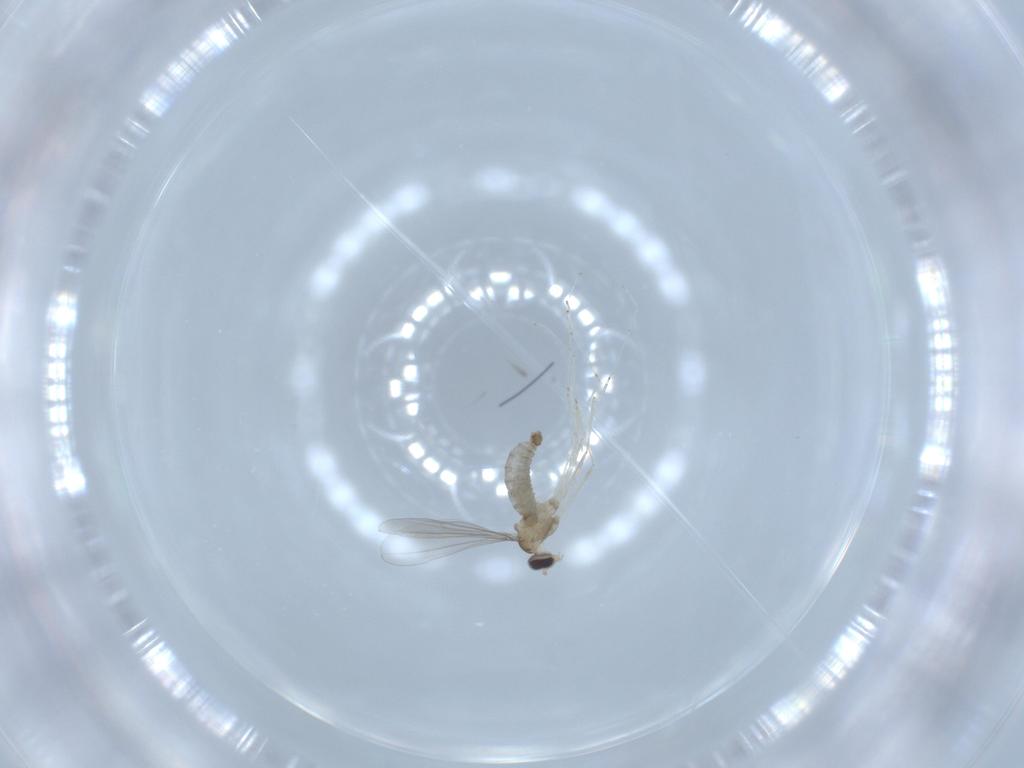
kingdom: Animalia
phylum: Arthropoda
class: Insecta
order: Diptera
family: Cecidomyiidae
